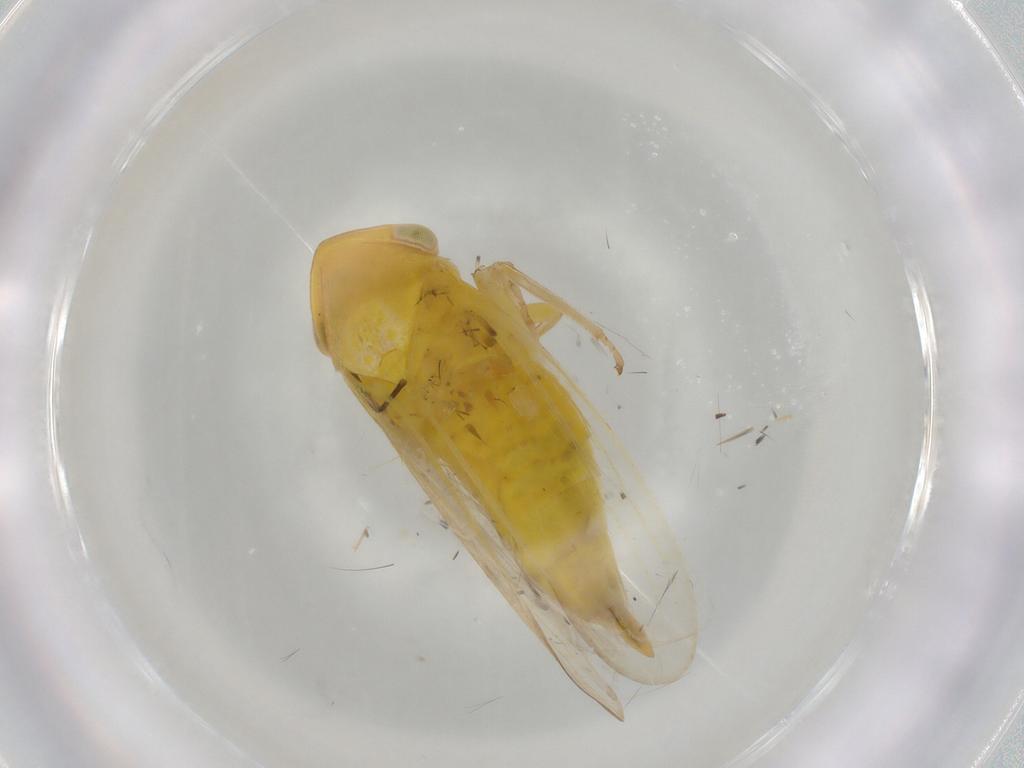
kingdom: Animalia
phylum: Arthropoda
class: Insecta
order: Hemiptera
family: Cicadellidae
